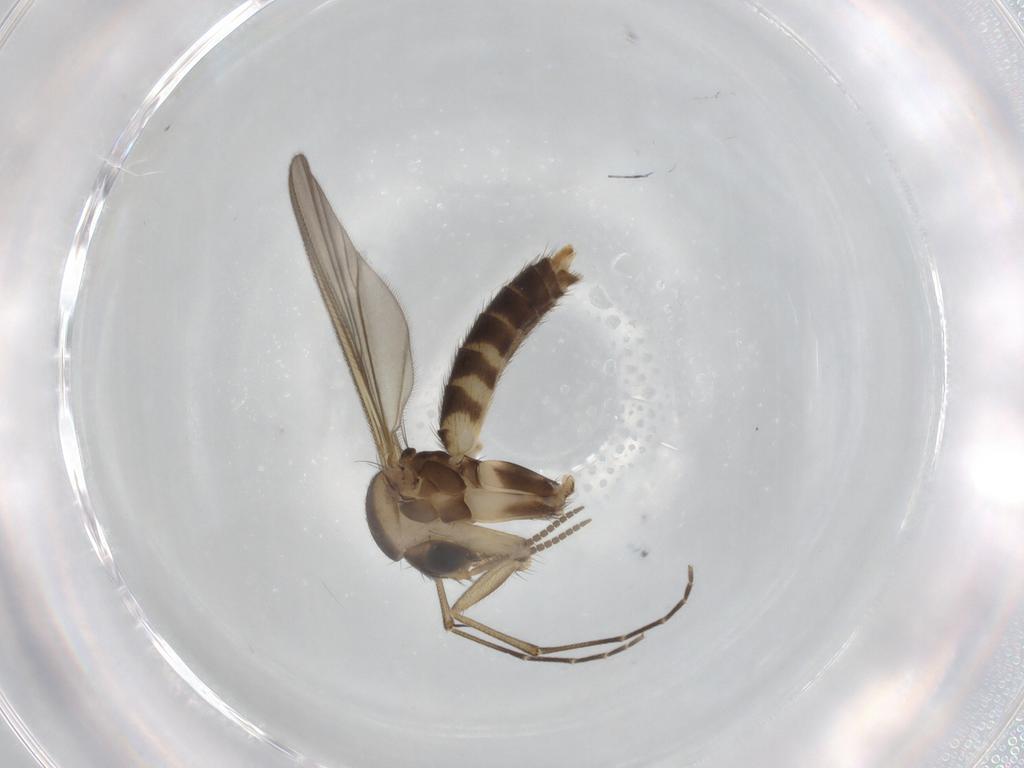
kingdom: Animalia
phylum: Arthropoda
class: Insecta
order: Diptera
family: Mycetophilidae
